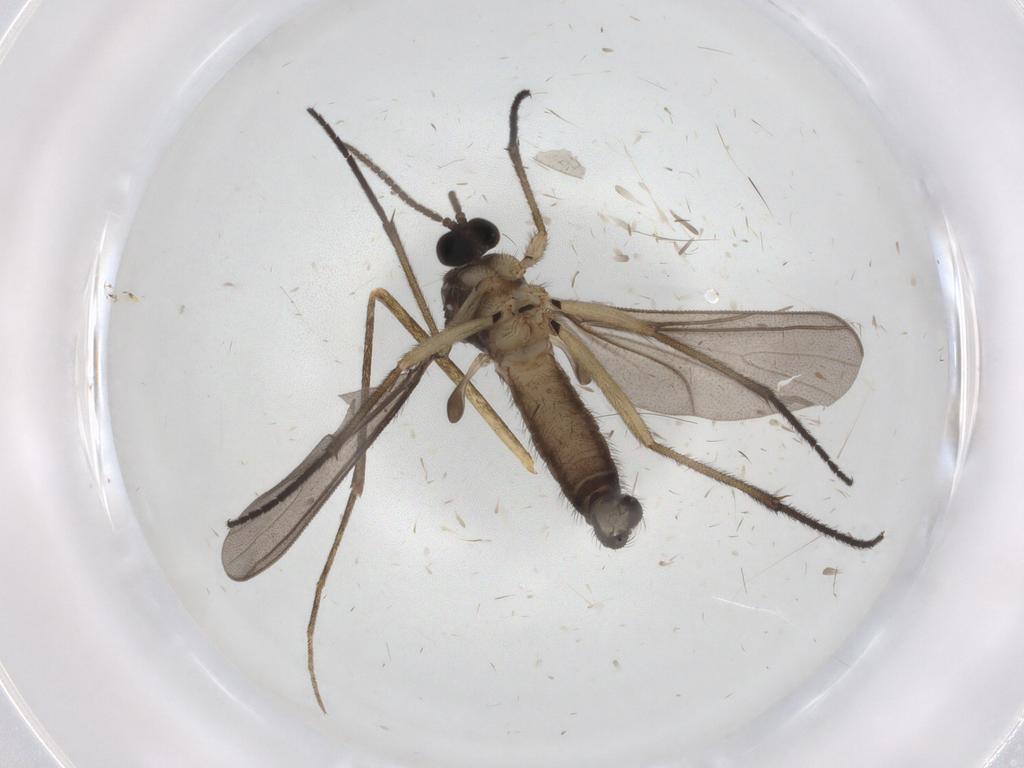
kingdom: Animalia
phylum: Arthropoda
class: Insecta
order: Diptera
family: Sciaridae
